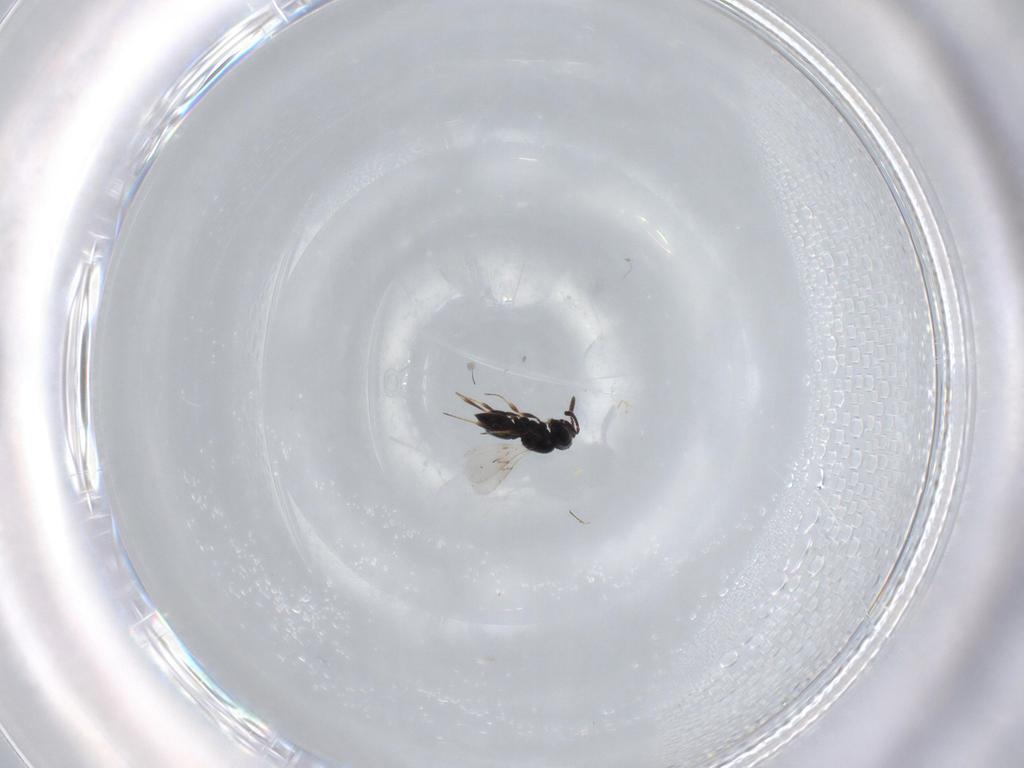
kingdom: Animalia
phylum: Arthropoda
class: Insecta
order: Hymenoptera
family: Scelionidae
